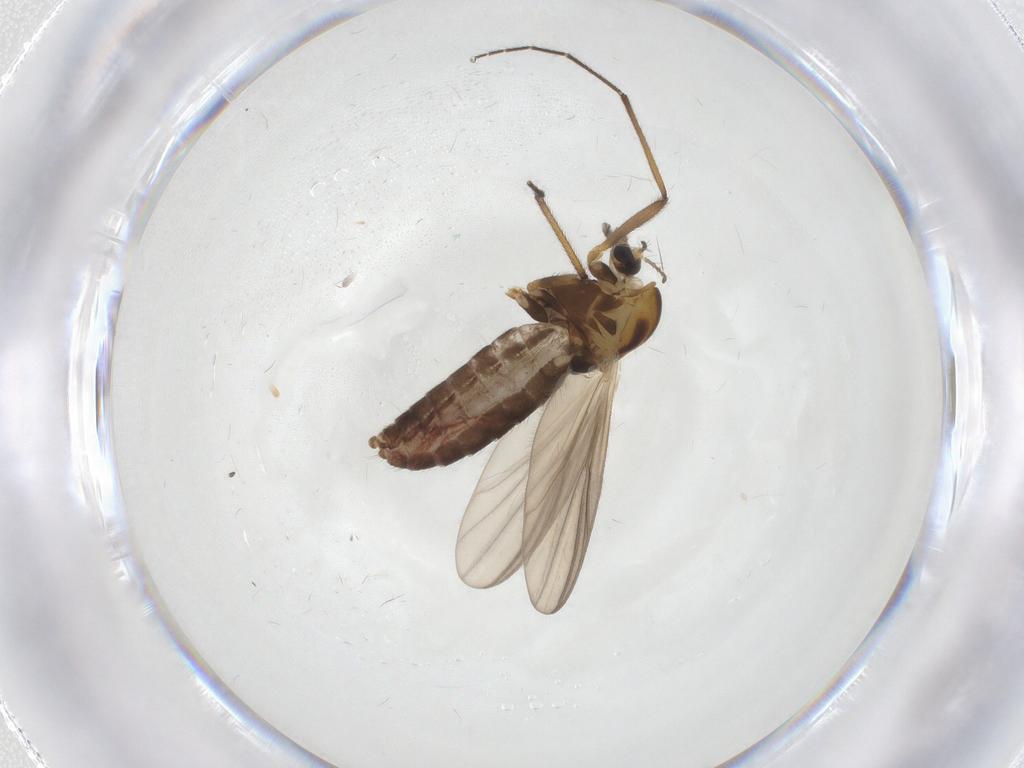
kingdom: Animalia
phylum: Arthropoda
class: Insecta
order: Diptera
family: Chironomidae
